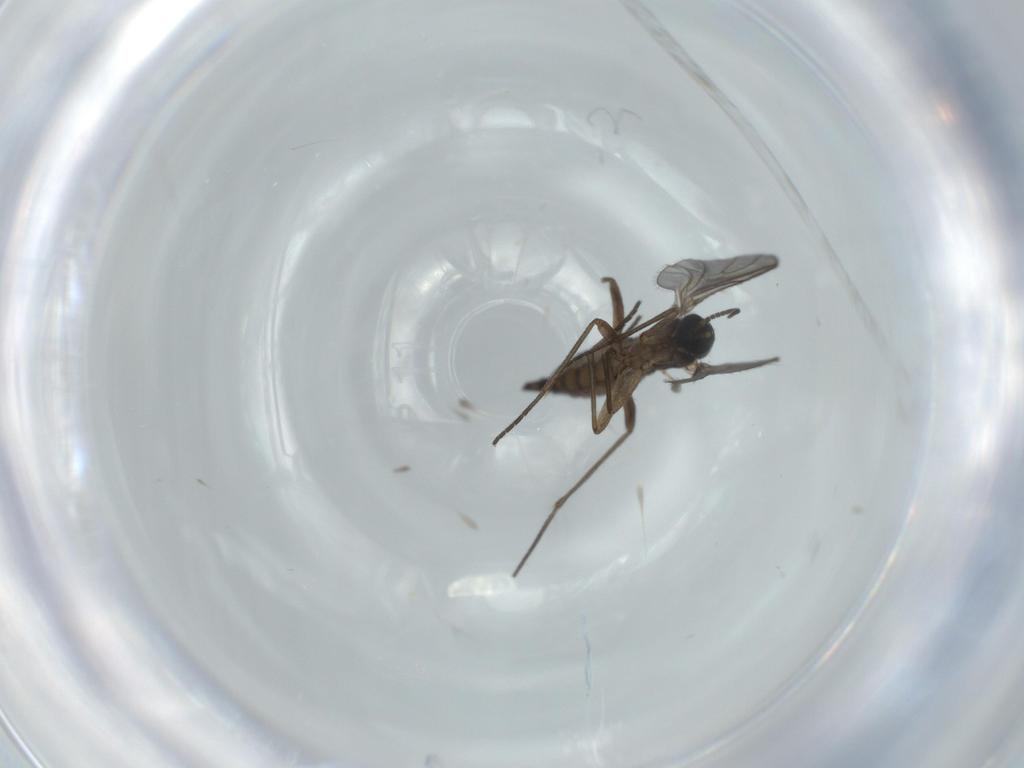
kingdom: Animalia
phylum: Arthropoda
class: Insecta
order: Diptera
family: Sciaridae
